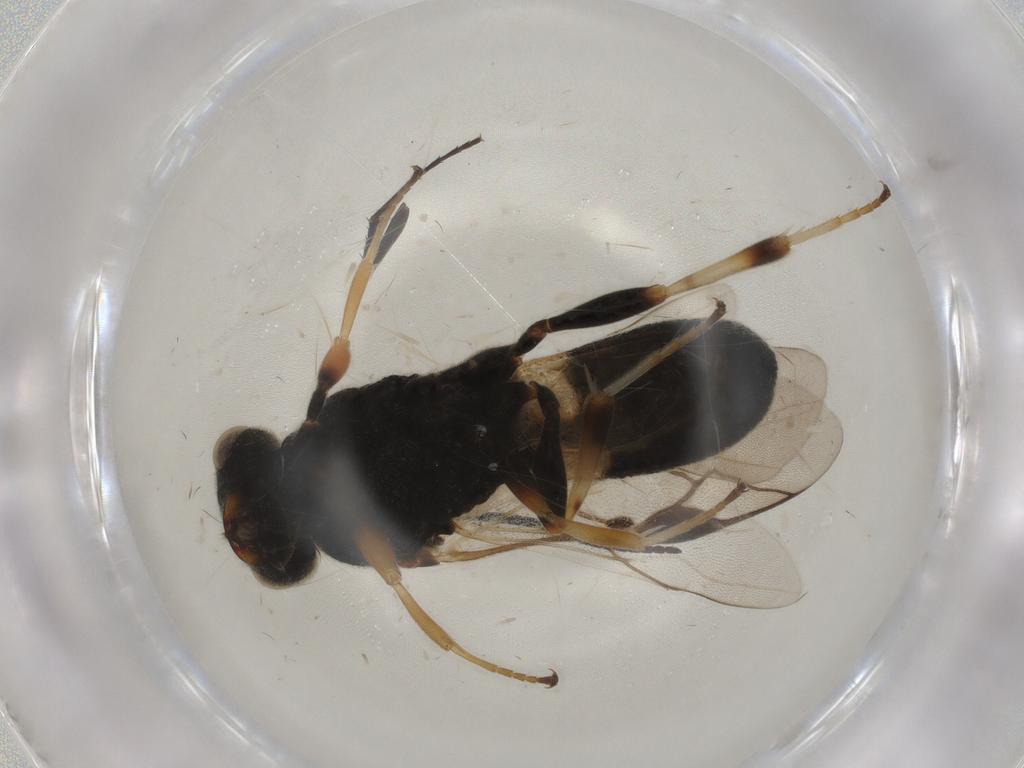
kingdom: Animalia
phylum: Arthropoda
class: Insecta
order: Hymenoptera
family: Braconidae
